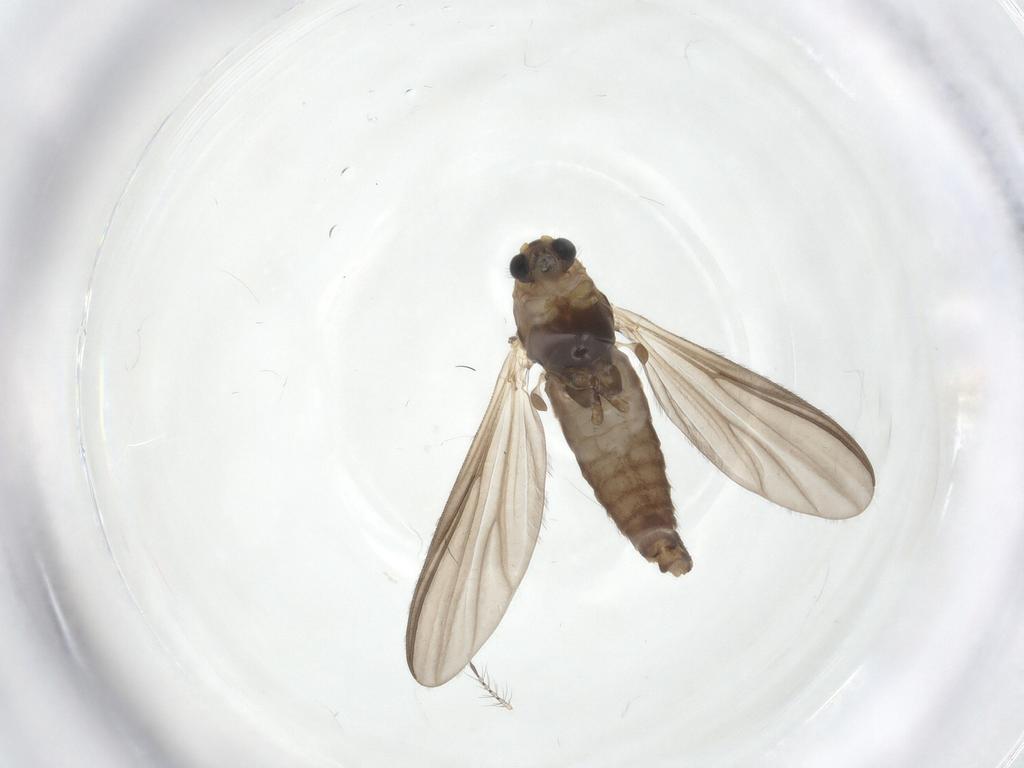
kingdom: Animalia
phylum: Arthropoda
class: Insecta
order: Diptera
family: Chironomidae
